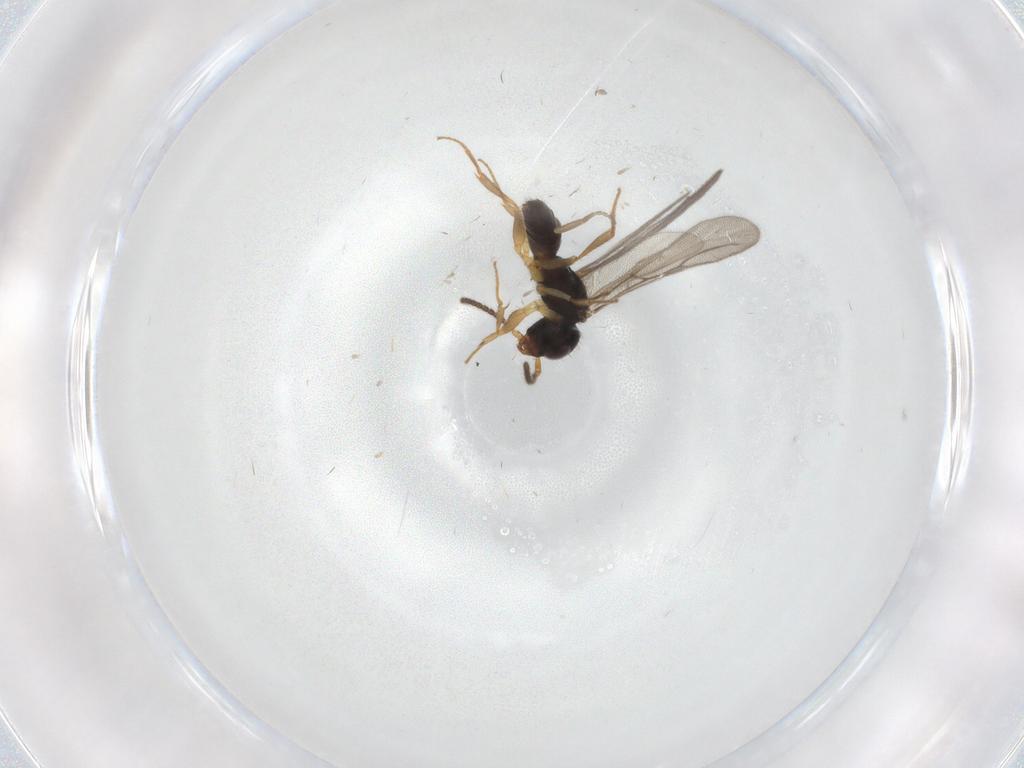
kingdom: Animalia
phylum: Arthropoda
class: Insecta
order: Hymenoptera
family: Bethylidae
